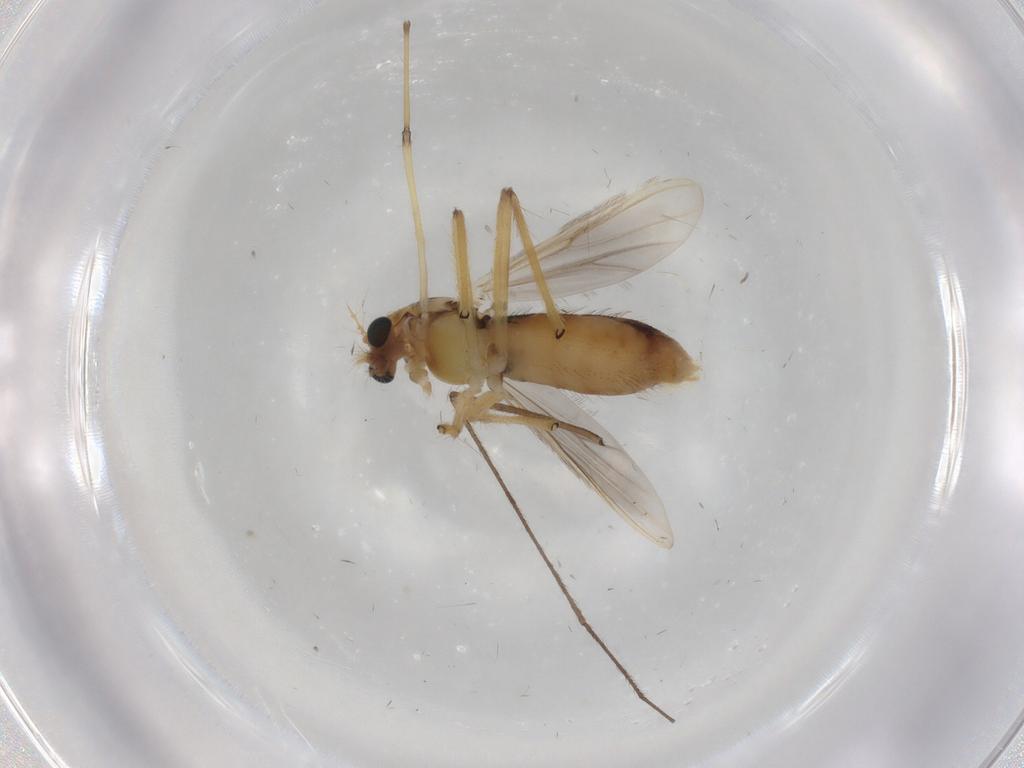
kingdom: Animalia
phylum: Arthropoda
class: Insecta
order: Diptera
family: Chironomidae
